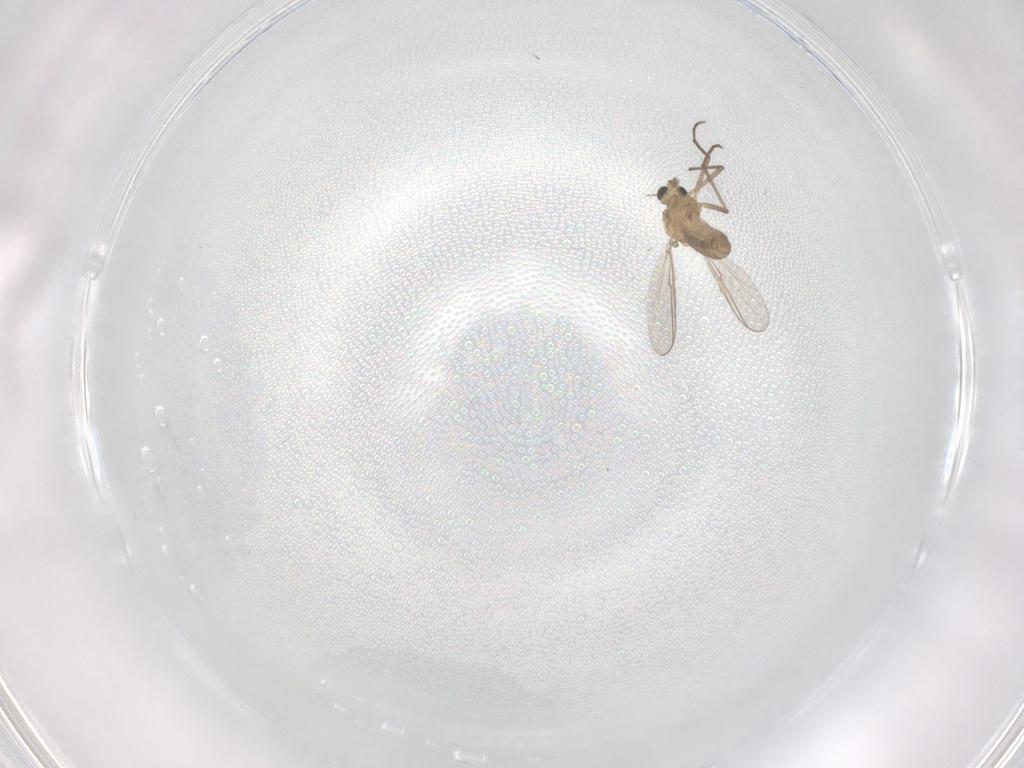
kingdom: Animalia
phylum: Arthropoda
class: Insecta
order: Diptera
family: Chironomidae
